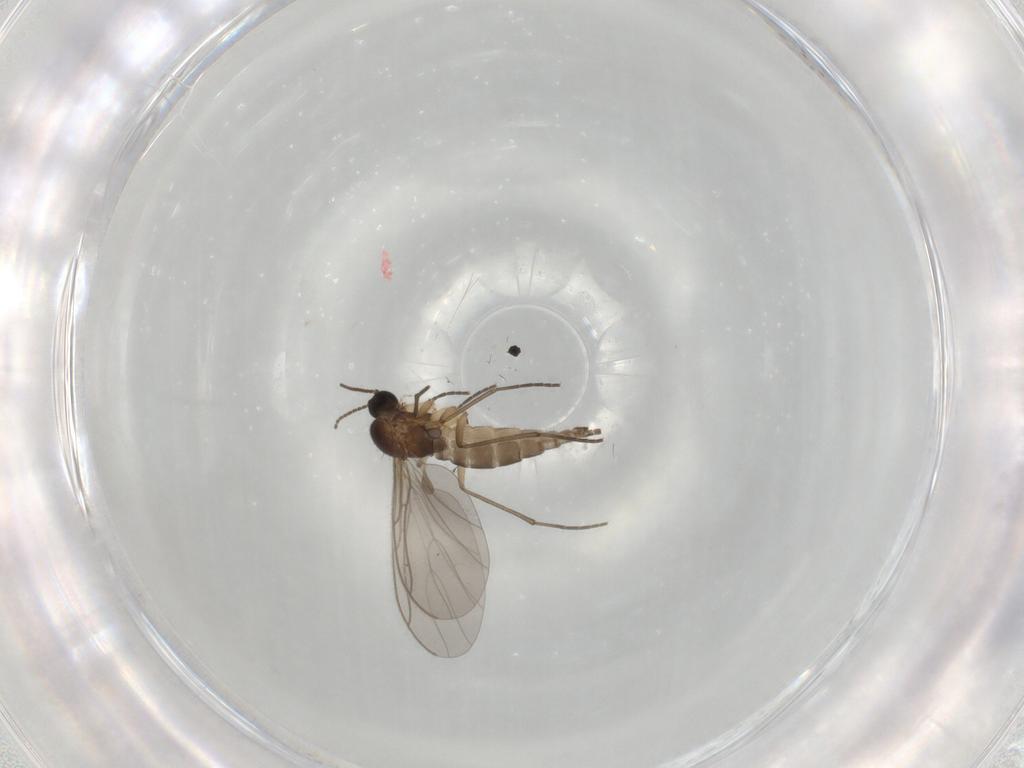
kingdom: Animalia
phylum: Arthropoda
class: Insecta
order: Diptera
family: Sciaridae
